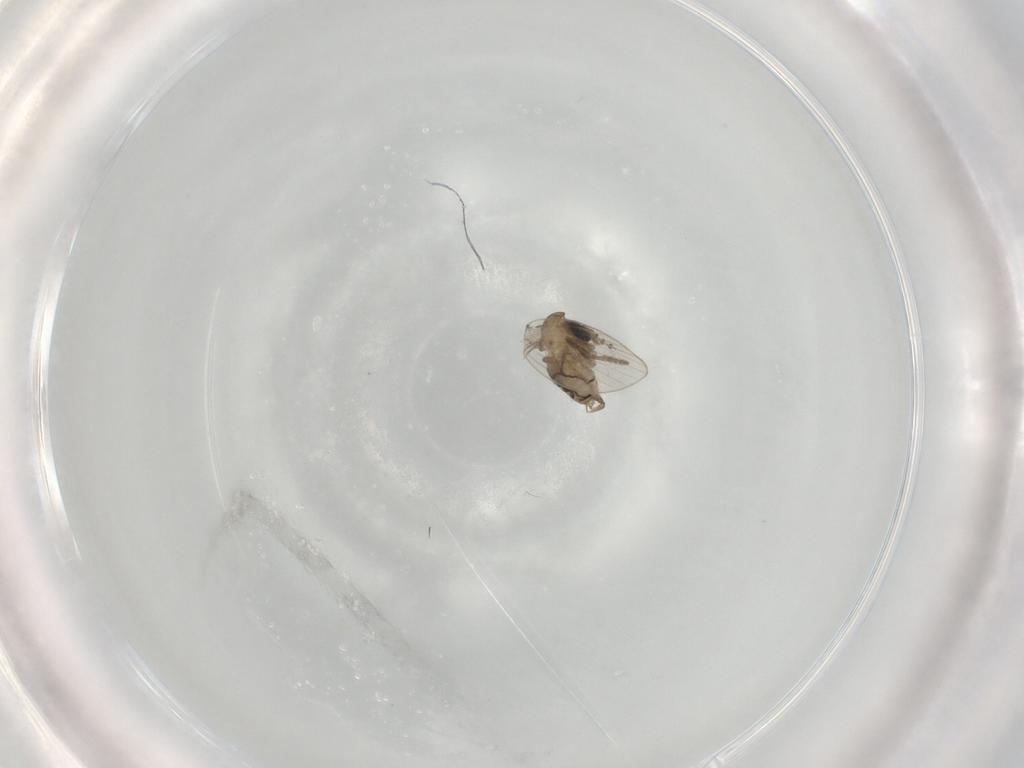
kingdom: Animalia
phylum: Arthropoda
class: Insecta
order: Diptera
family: Psychodidae
